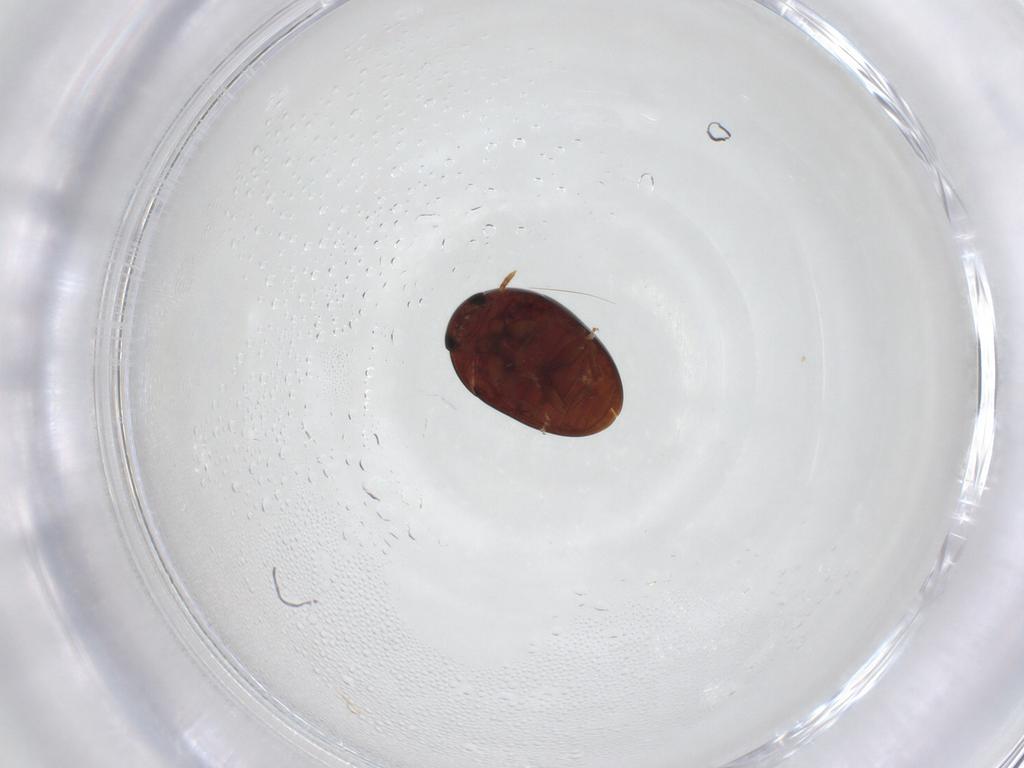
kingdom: Animalia
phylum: Arthropoda
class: Insecta
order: Coleoptera
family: Phalacridae
